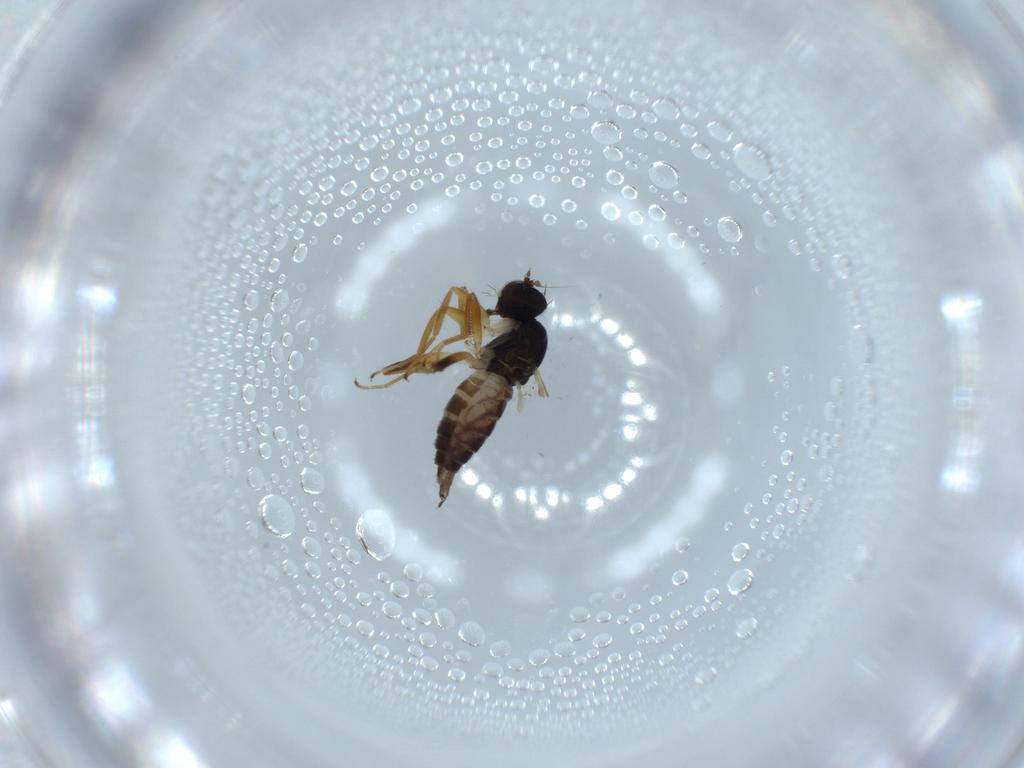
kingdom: Animalia
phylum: Arthropoda
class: Insecta
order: Diptera
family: Hybotidae
